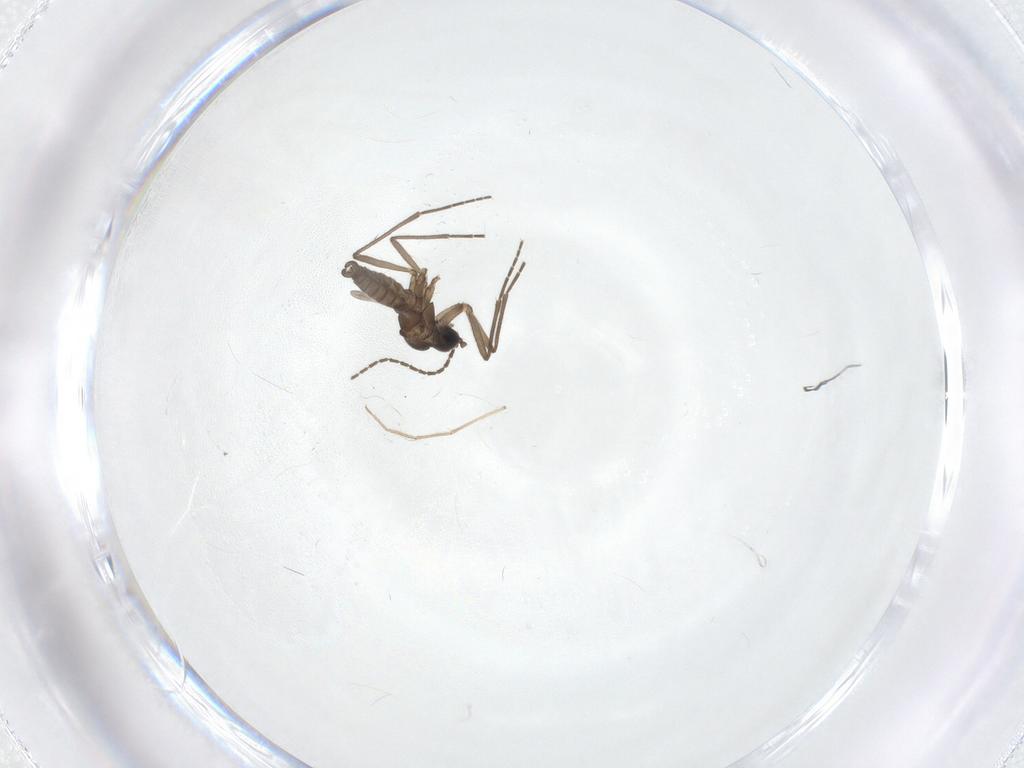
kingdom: Animalia
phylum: Arthropoda
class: Insecta
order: Diptera
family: Sciaridae
